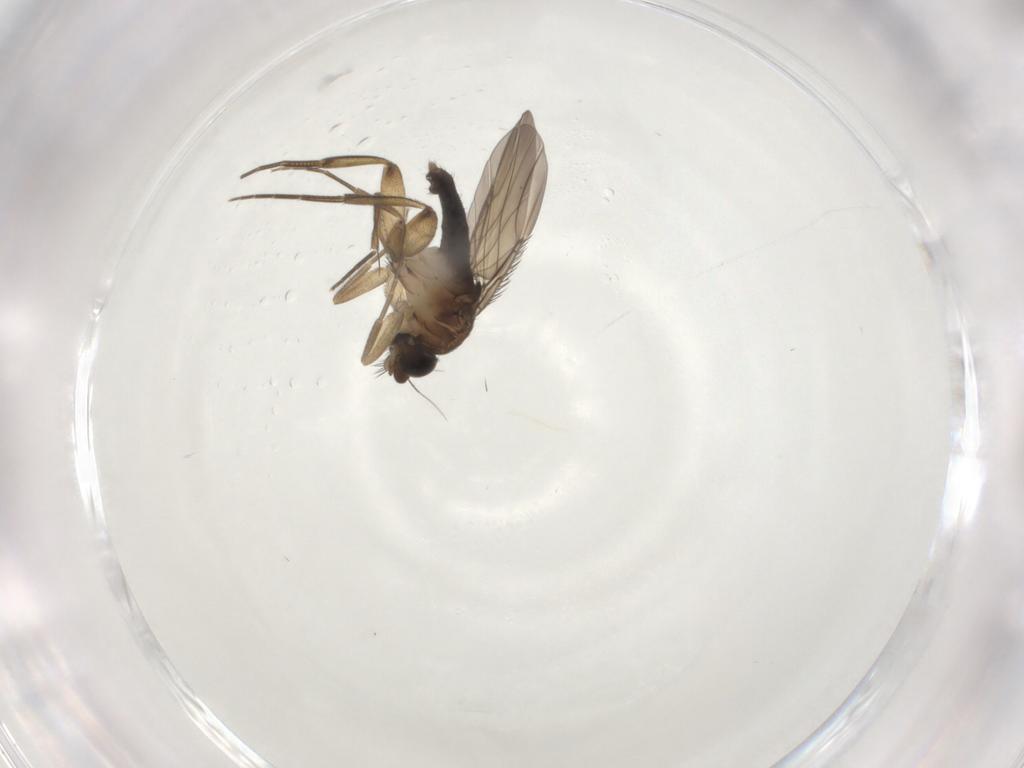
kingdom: Animalia
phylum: Arthropoda
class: Insecta
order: Diptera
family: Phoridae
